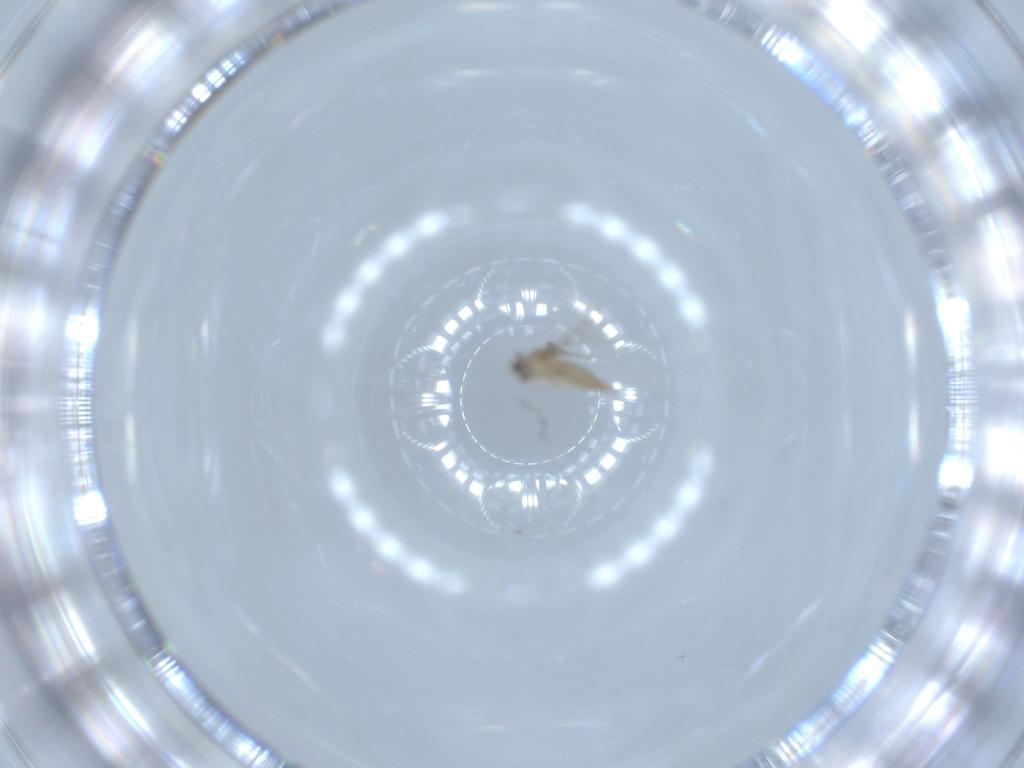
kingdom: Animalia
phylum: Arthropoda
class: Insecta
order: Diptera
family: Cecidomyiidae
